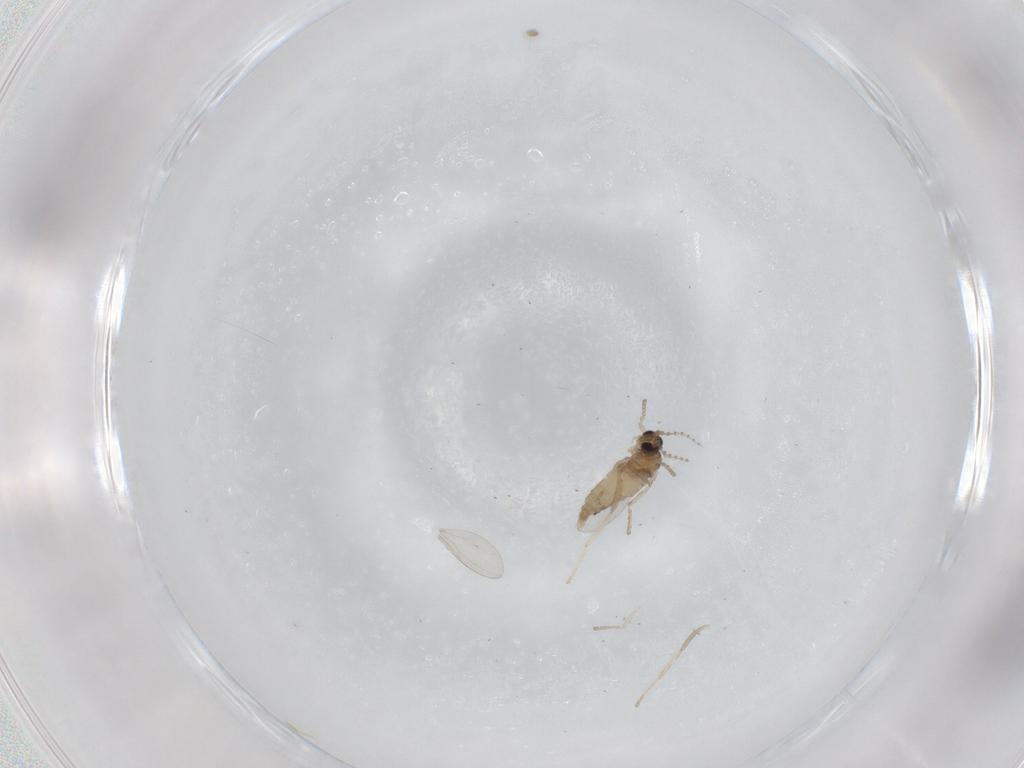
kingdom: Animalia
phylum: Arthropoda
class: Insecta
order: Diptera
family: Cecidomyiidae
